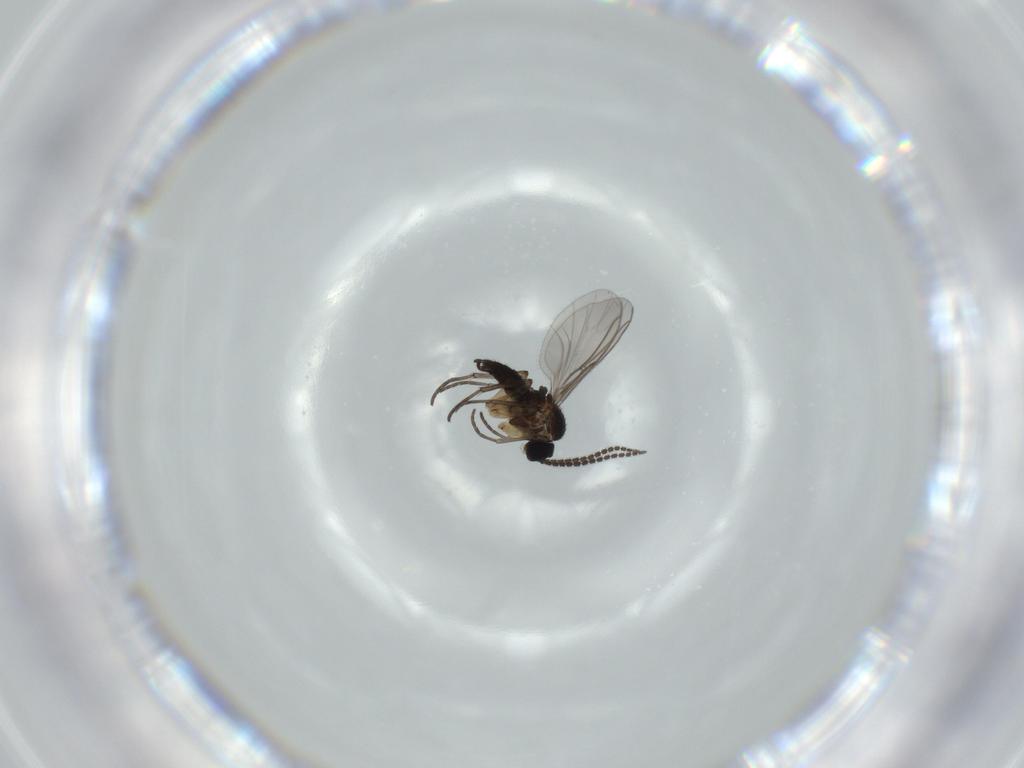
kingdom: Animalia
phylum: Arthropoda
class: Insecta
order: Diptera
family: Sciaridae
